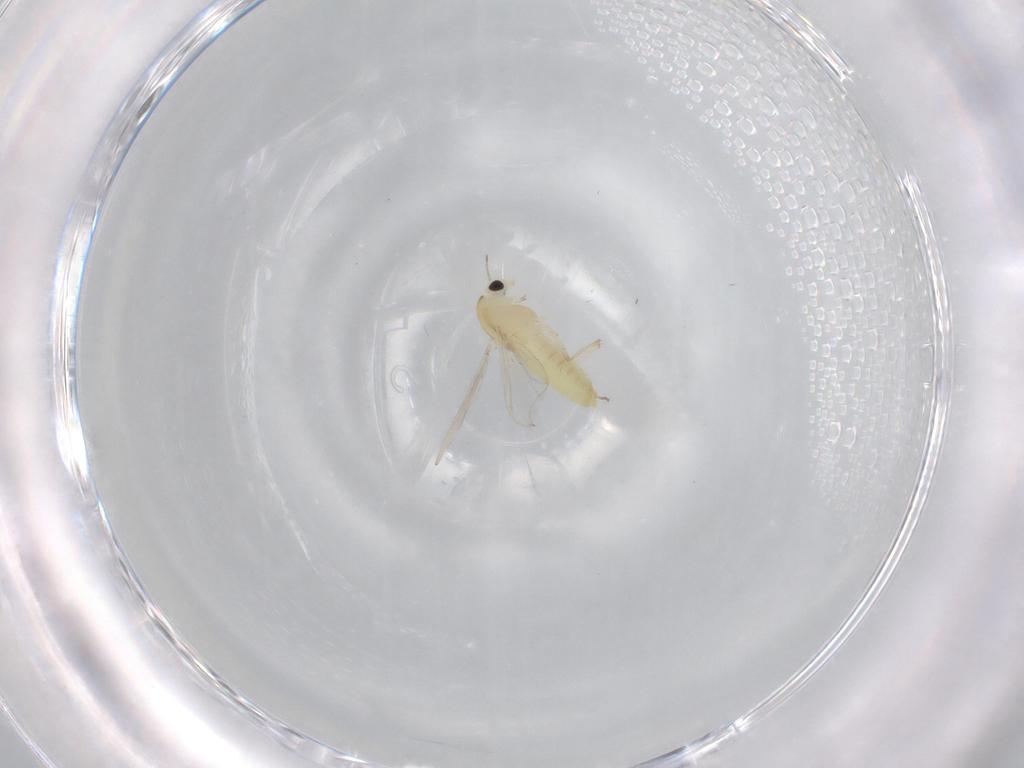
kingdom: Animalia
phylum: Arthropoda
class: Insecta
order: Diptera
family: Chironomidae
